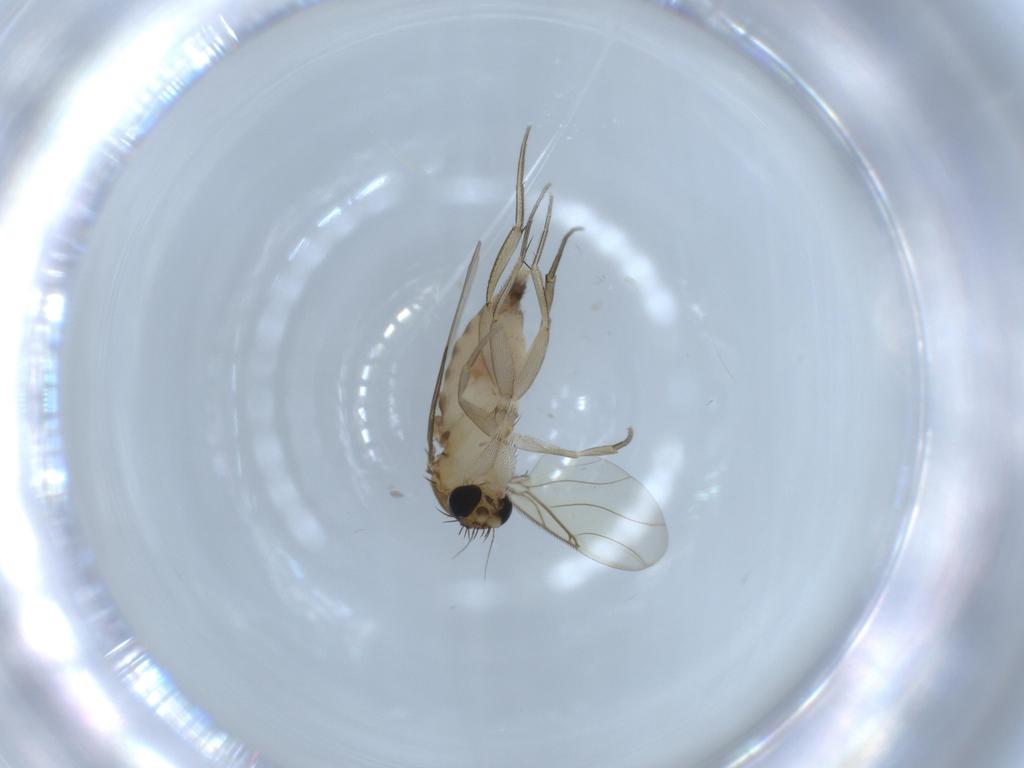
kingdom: Animalia
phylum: Arthropoda
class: Insecta
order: Diptera
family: Phoridae
